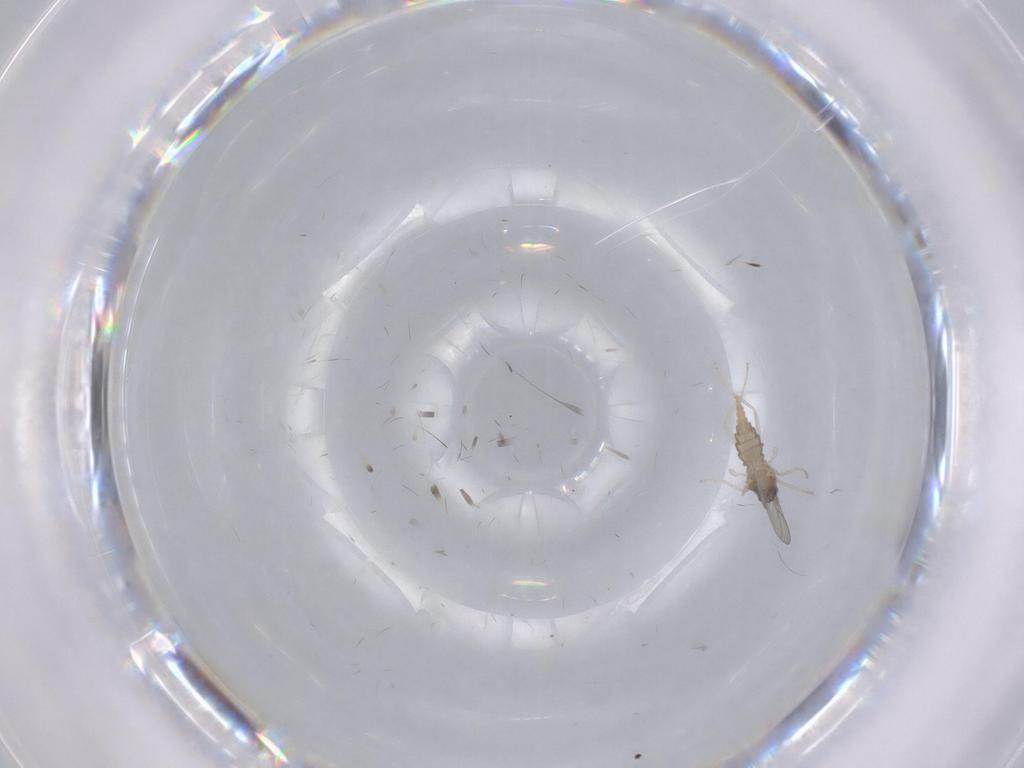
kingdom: Animalia
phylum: Arthropoda
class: Insecta
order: Diptera
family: Cecidomyiidae
